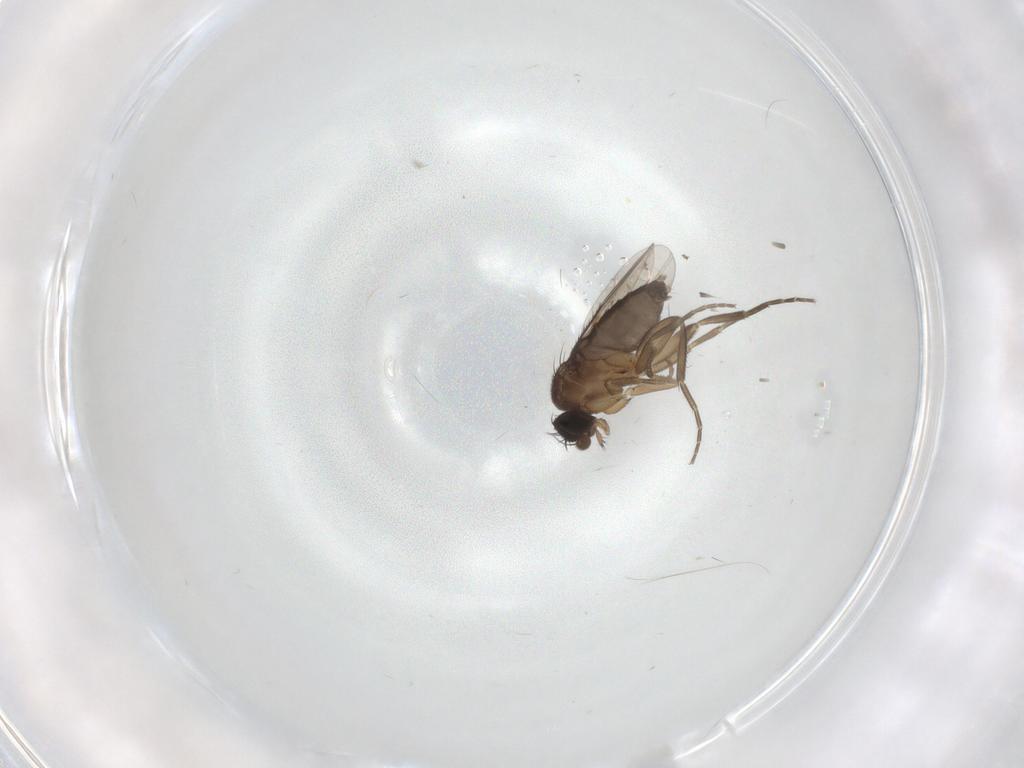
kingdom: Animalia
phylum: Arthropoda
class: Insecta
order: Diptera
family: Phoridae
